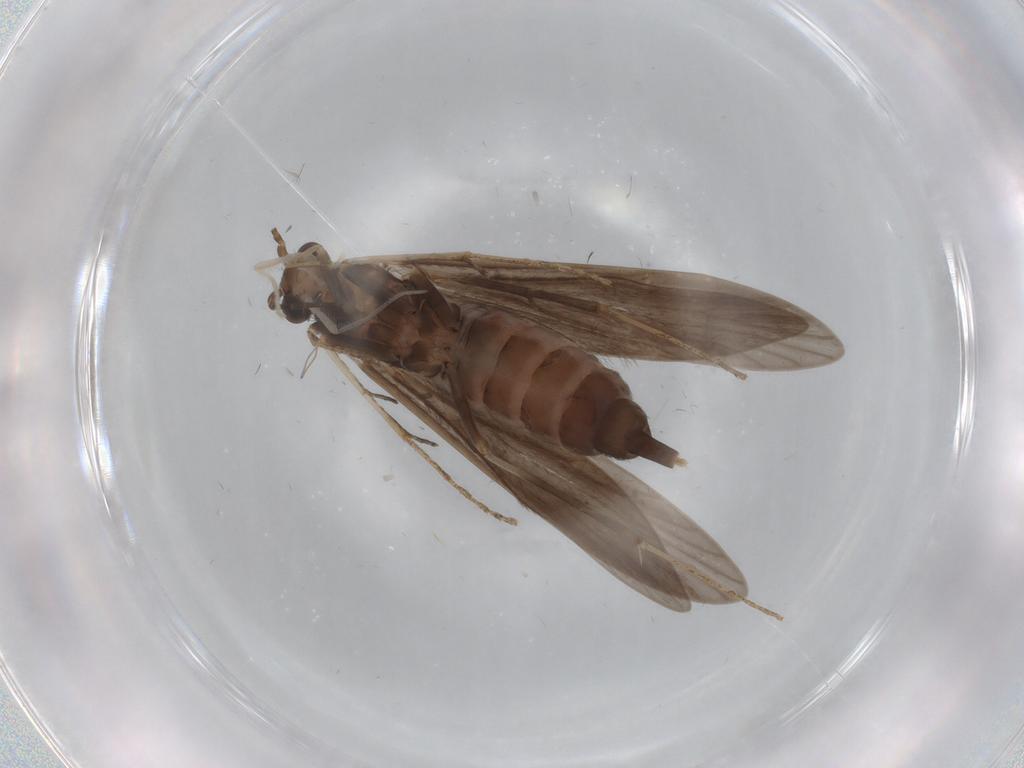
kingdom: Animalia
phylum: Arthropoda
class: Insecta
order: Trichoptera
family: Xiphocentronidae
